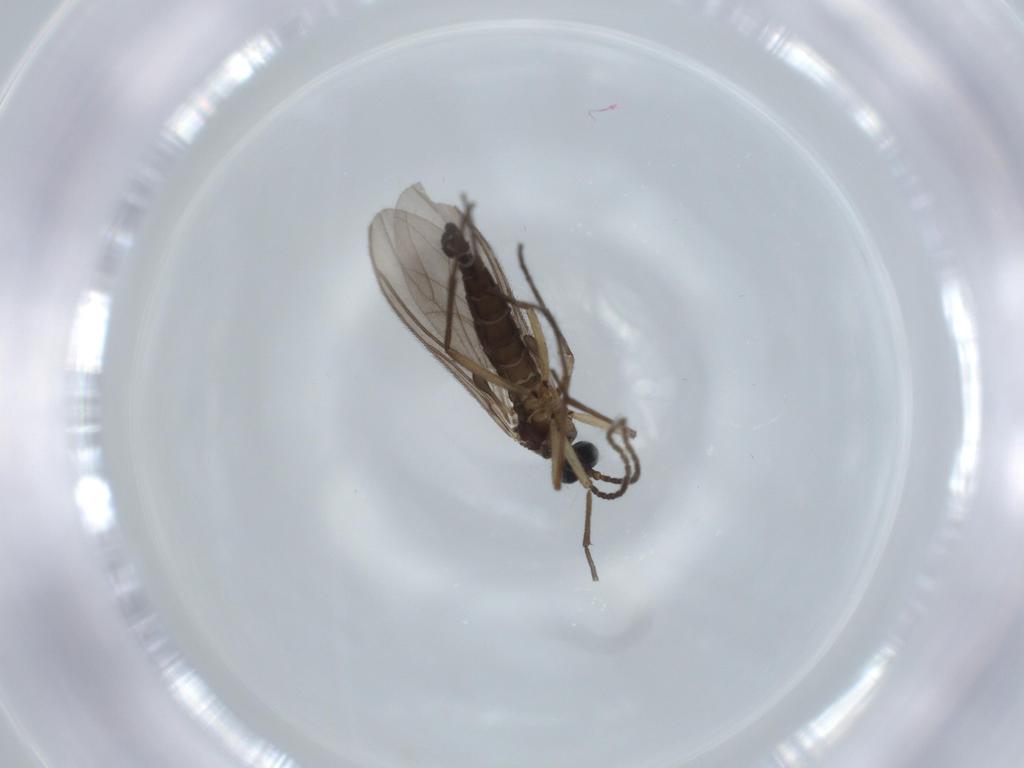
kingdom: Animalia
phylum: Arthropoda
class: Insecta
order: Diptera
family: Sciaridae
